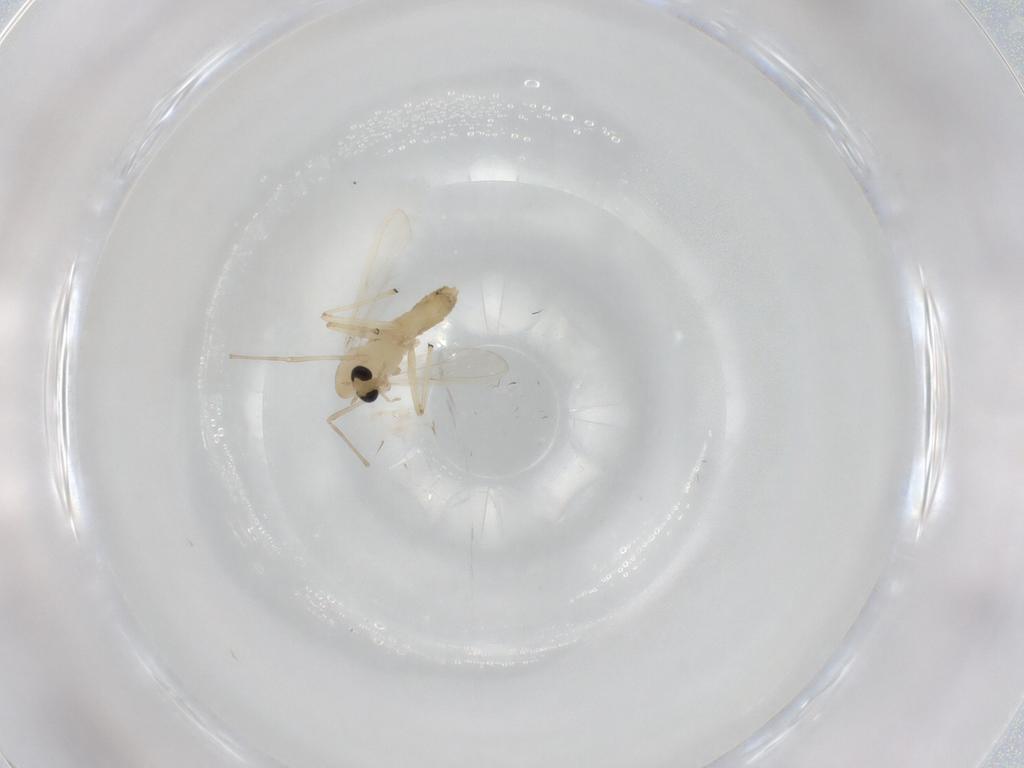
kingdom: Animalia
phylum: Arthropoda
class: Insecta
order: Diptera
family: Chironomidae
